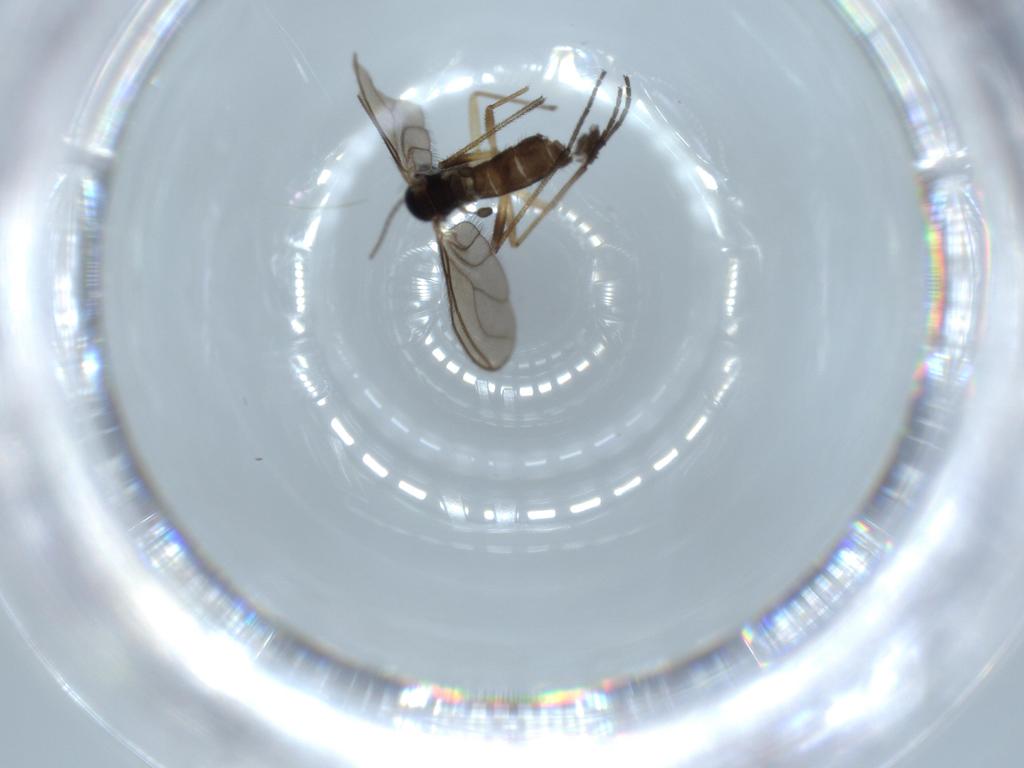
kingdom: Animalia
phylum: Arthropoda
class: Insecta
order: Diptera
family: Sciaridae
